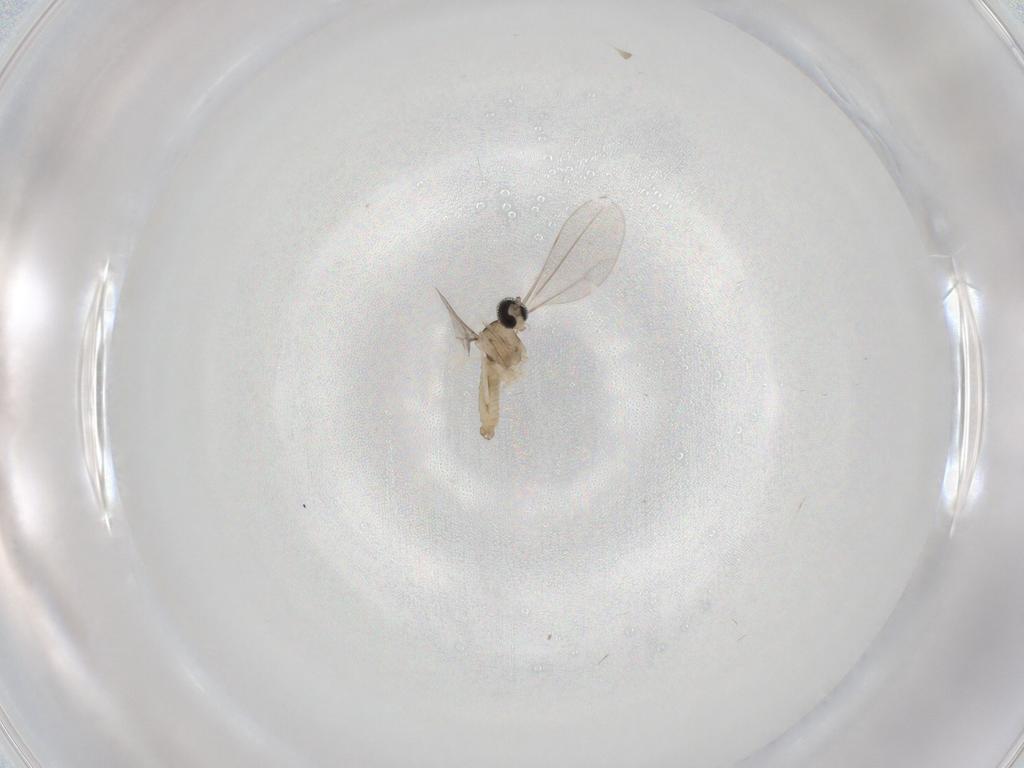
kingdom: Animalia
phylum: Arthropoda
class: Insecta
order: Diptera
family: Cecidomyiidae
